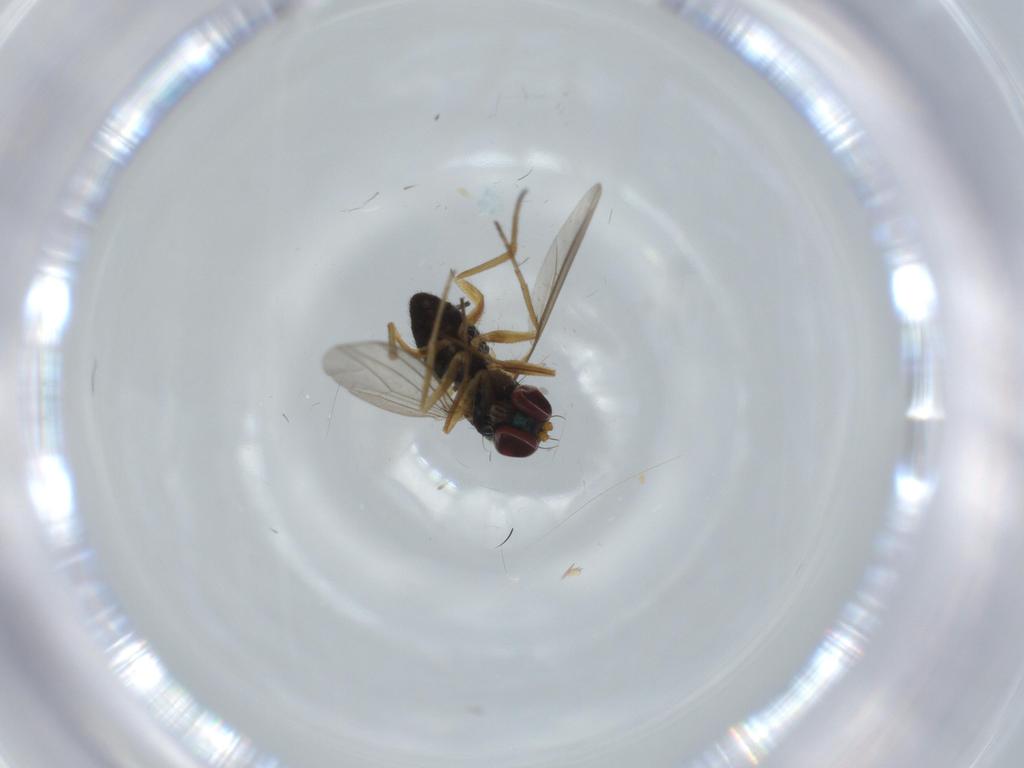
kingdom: Animalia
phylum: Arthropoda
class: Insecta
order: Diptera
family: Dolichopodidae
